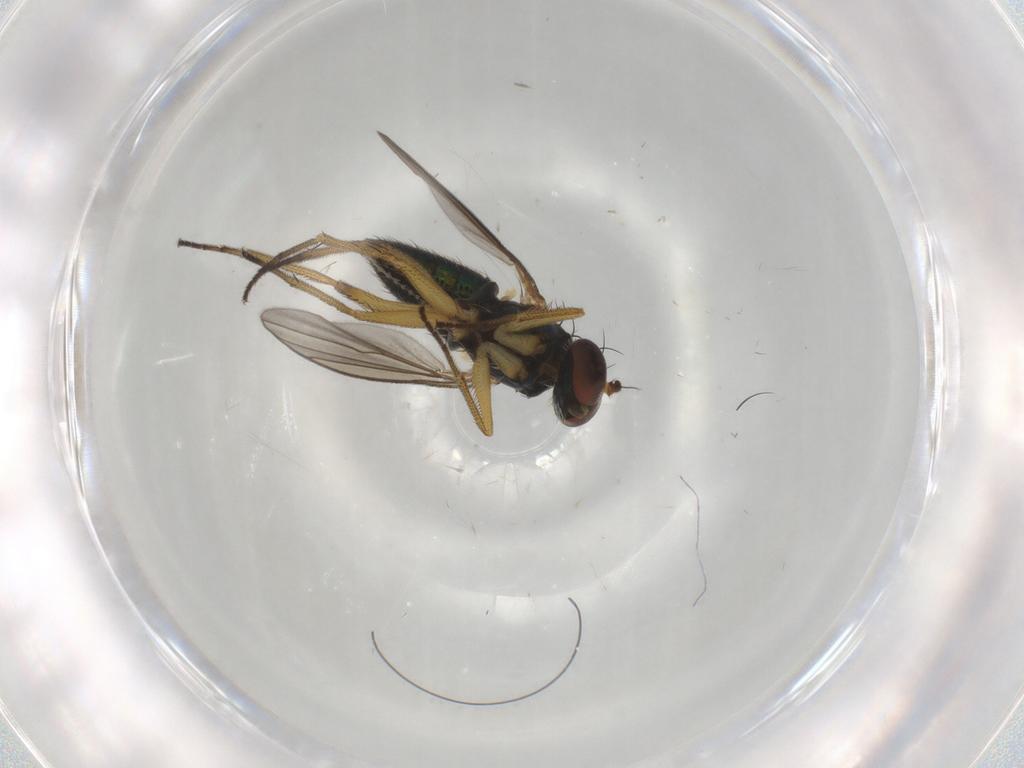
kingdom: Animalia
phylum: Arthropoda
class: Insecta
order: Diptera
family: Dolichopodidae
